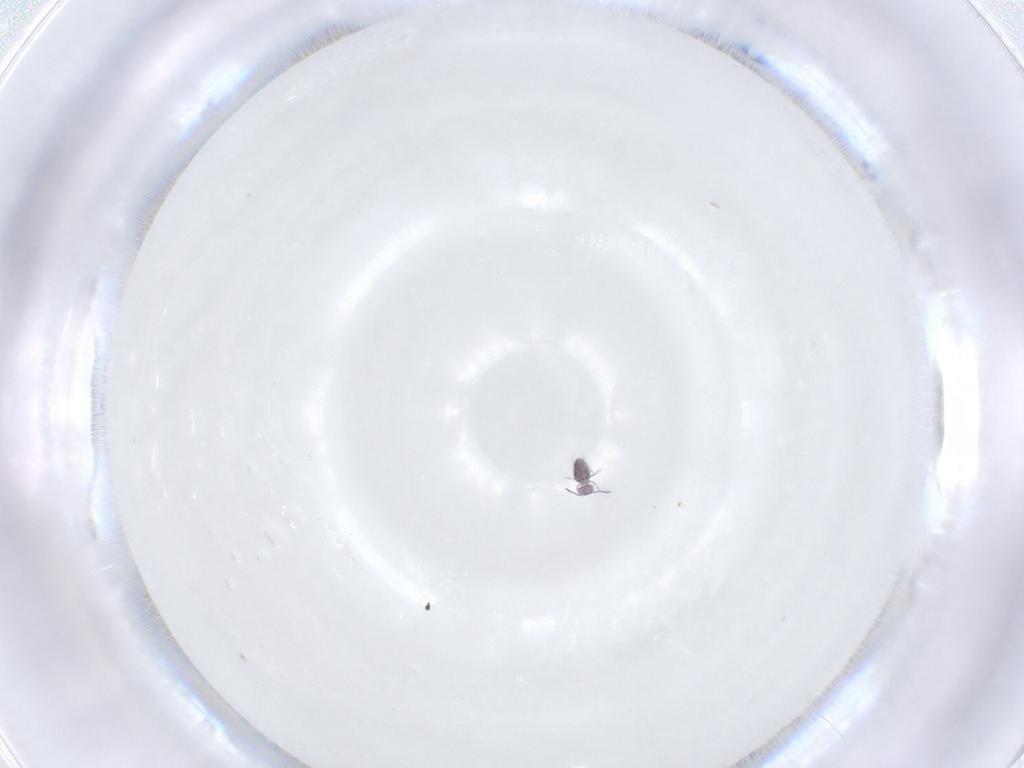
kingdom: Animalia
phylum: Arthropoda
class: Collembola
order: Symphypleona
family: Sminthurididae
